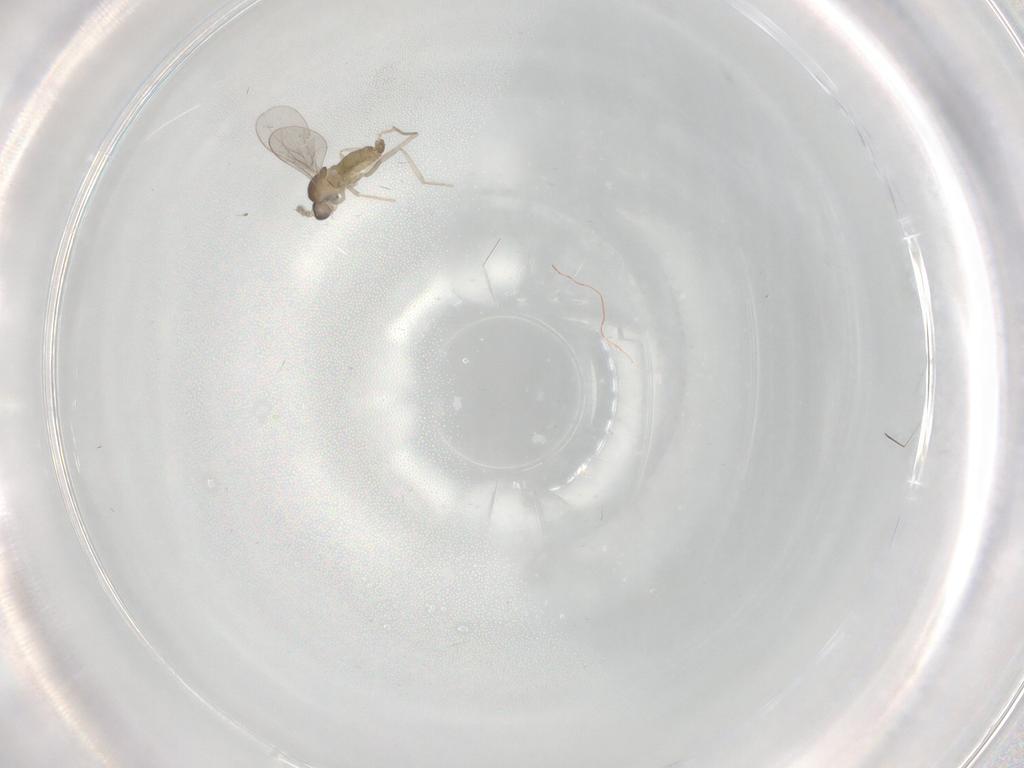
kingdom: Animalia
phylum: Arthropoda
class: Insecta
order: Diptera
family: Cecidomyiidae
